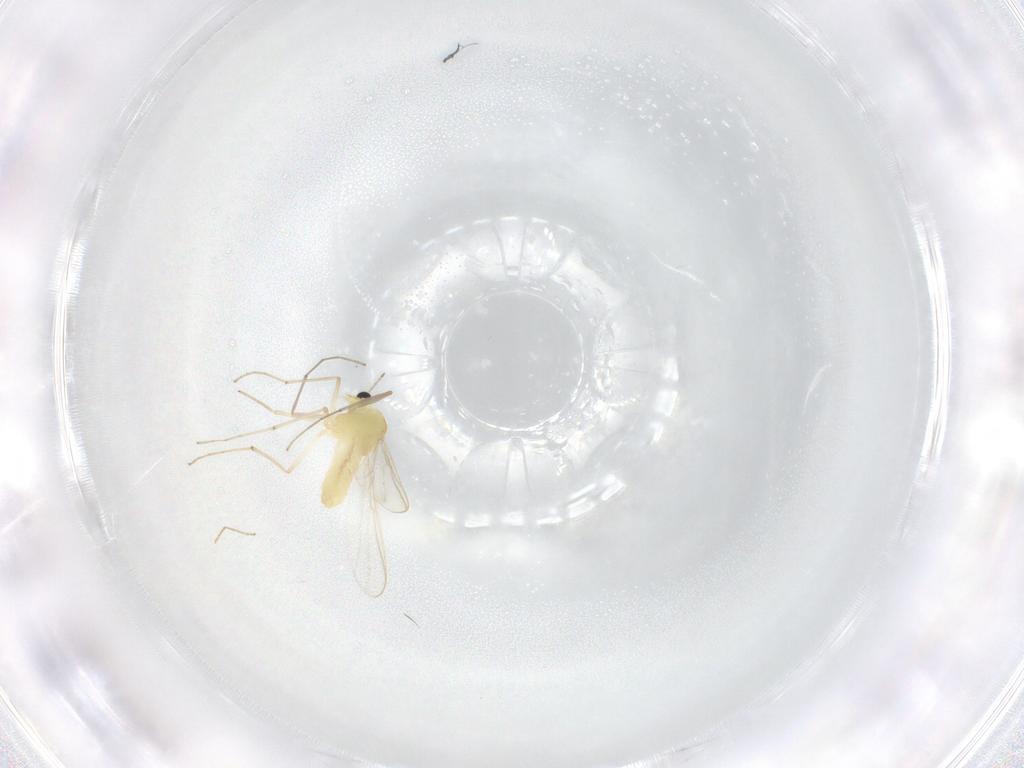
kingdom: Animalia
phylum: Arthropoda
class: Insecta
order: Diptera
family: Chironomidae
